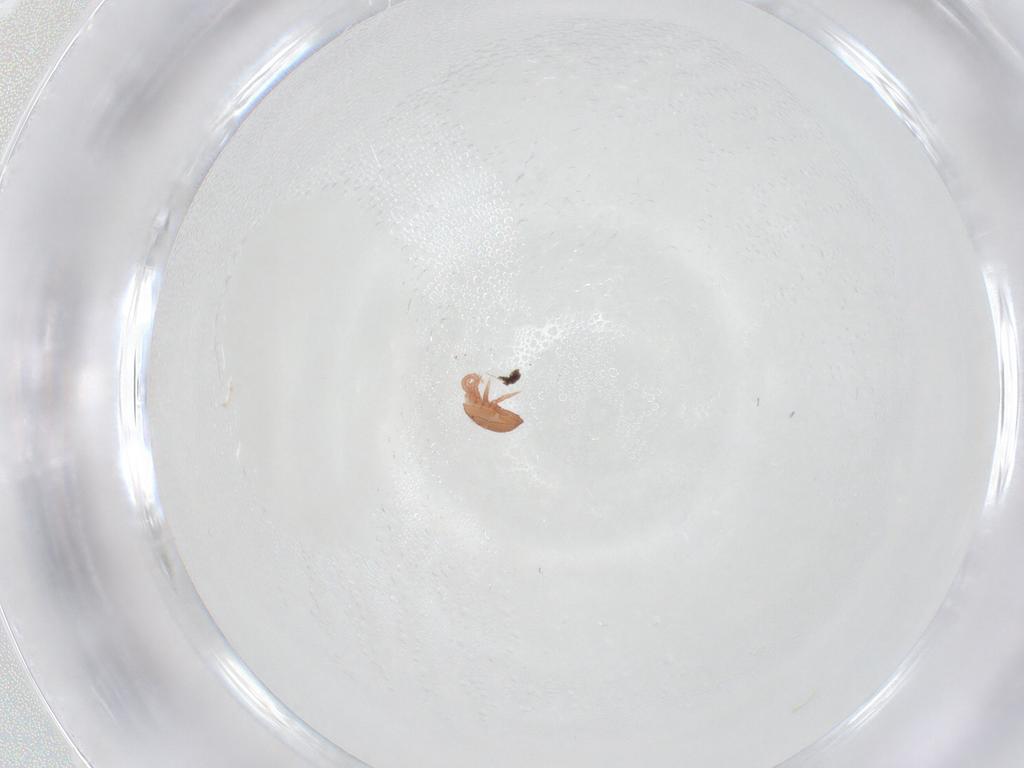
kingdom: Animalia
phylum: Arthropoda
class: Arachnida
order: Mesostigmata
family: Zerconidae
